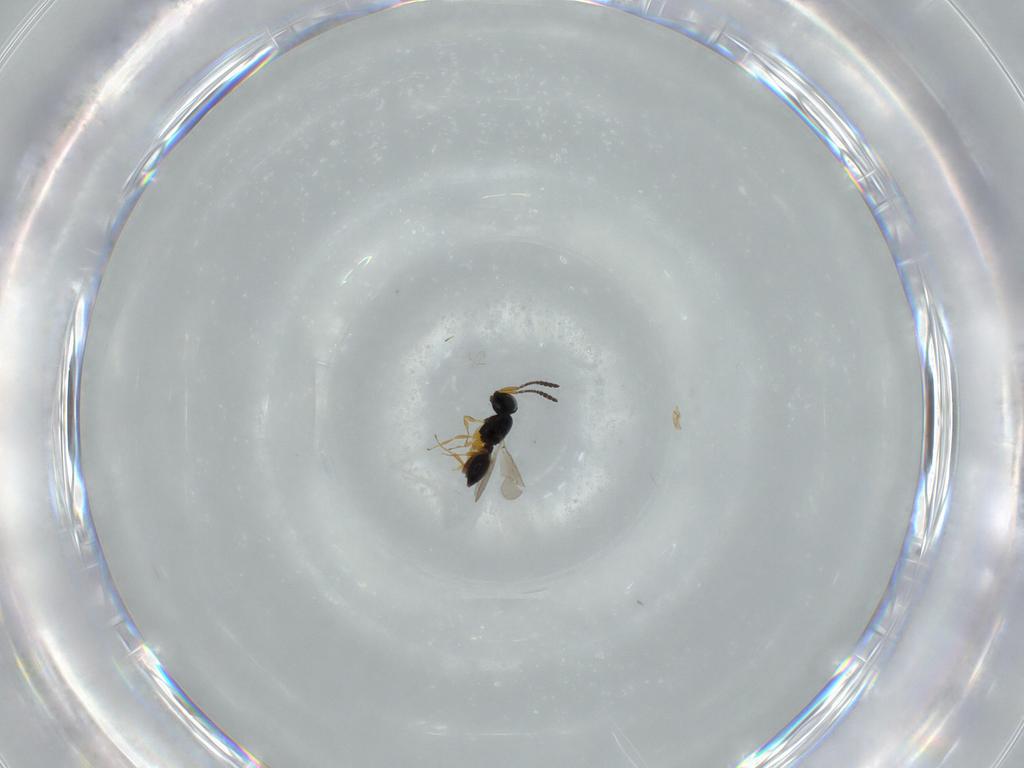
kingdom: Animalia
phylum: Arthropoda
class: Insecta
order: Hymenoptera
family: Scelionidae
